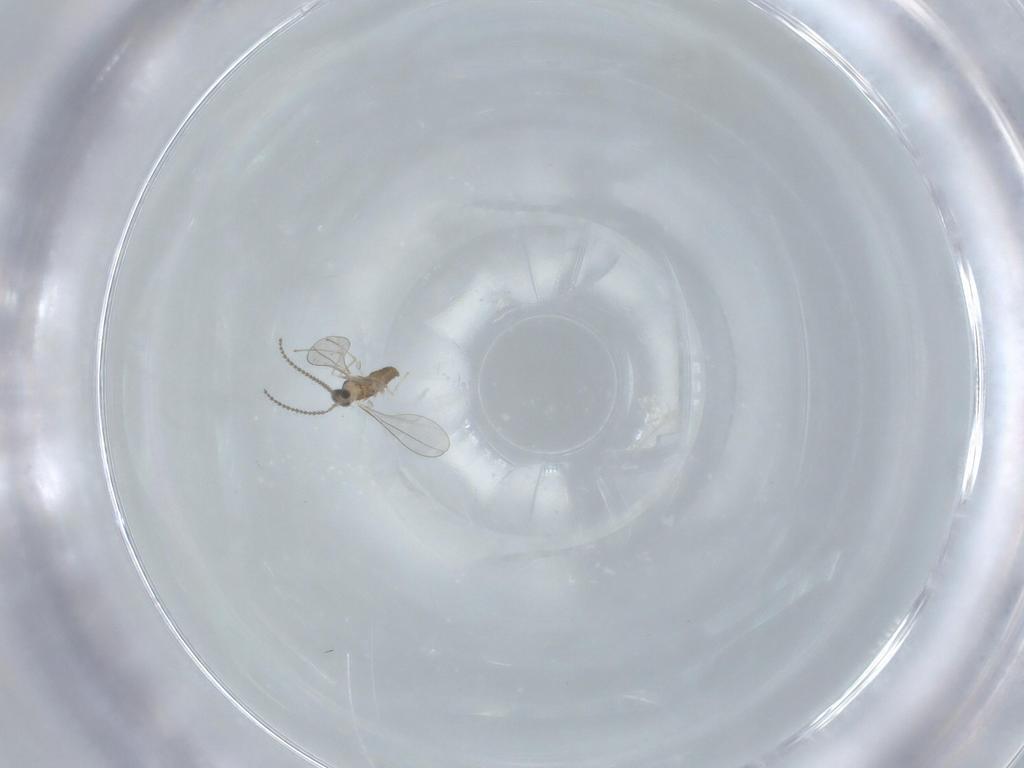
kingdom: Animalia
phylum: Arthropoda
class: Insecta
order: Diptera
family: Cecidomyiidae
